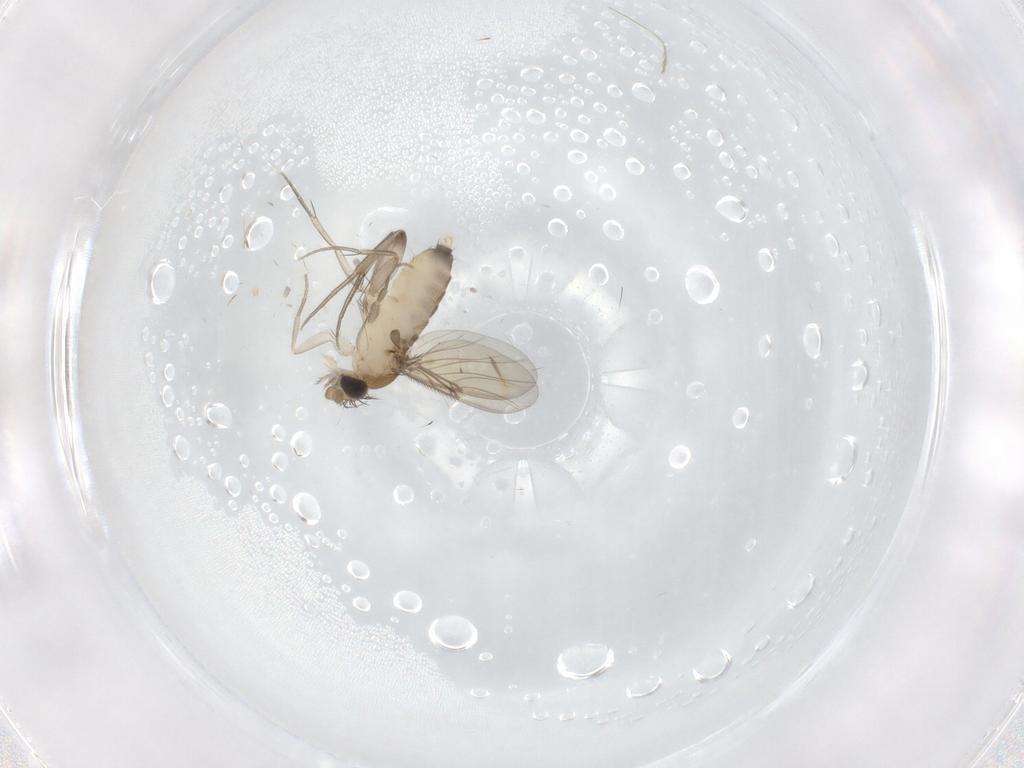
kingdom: Animalia
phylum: Arthropoda
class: Insecta
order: Diptera
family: Phoridae
